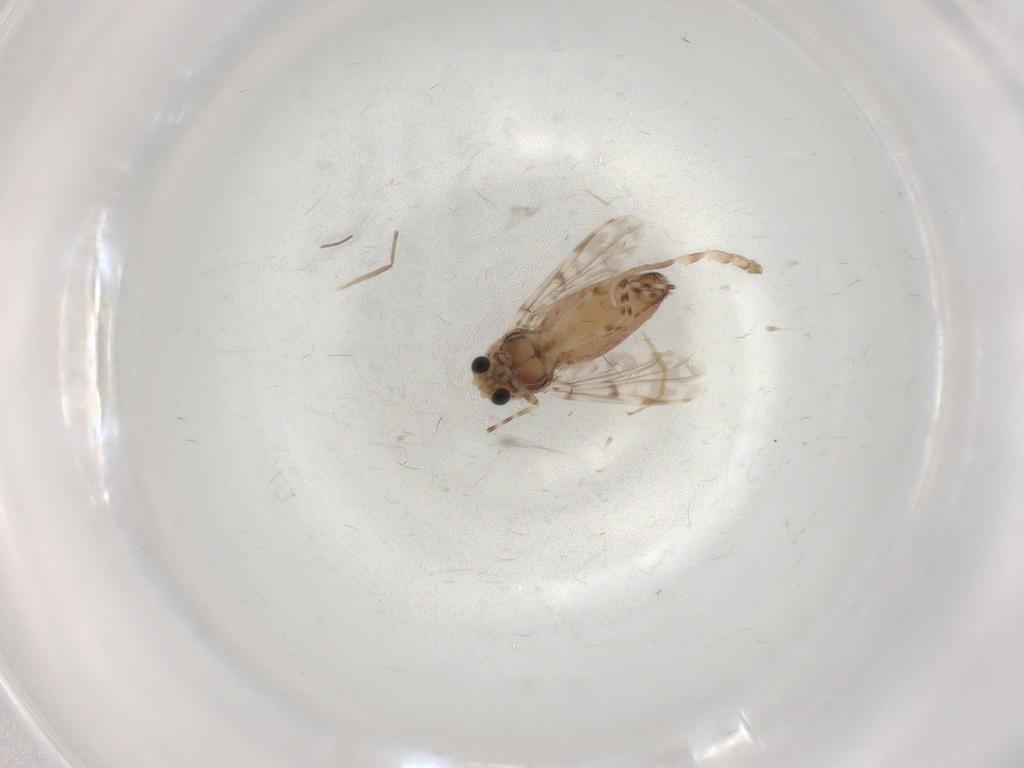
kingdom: Animalia
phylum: Arthropoda
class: Insecta
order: Diptera
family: Chironomidae
